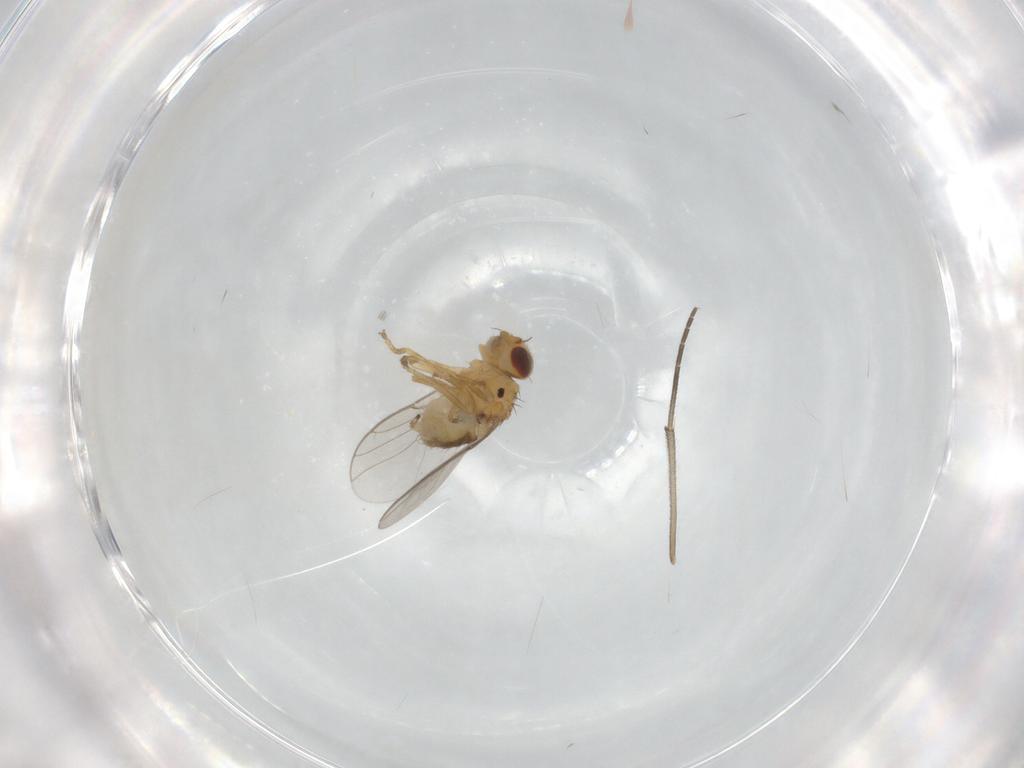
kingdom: Animalia
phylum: Arthropoda
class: Insecta
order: Diptera
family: Chloropidae
